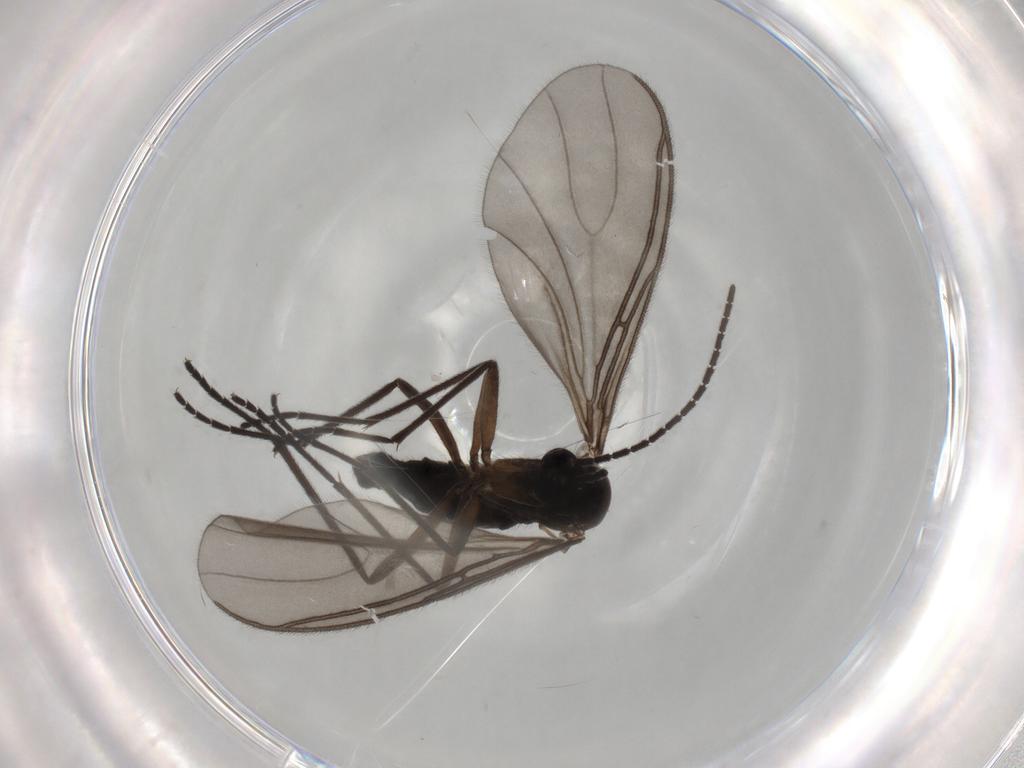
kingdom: Animalia
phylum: Arthropoda
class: Insecta
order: Diptera
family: Sciaridae
